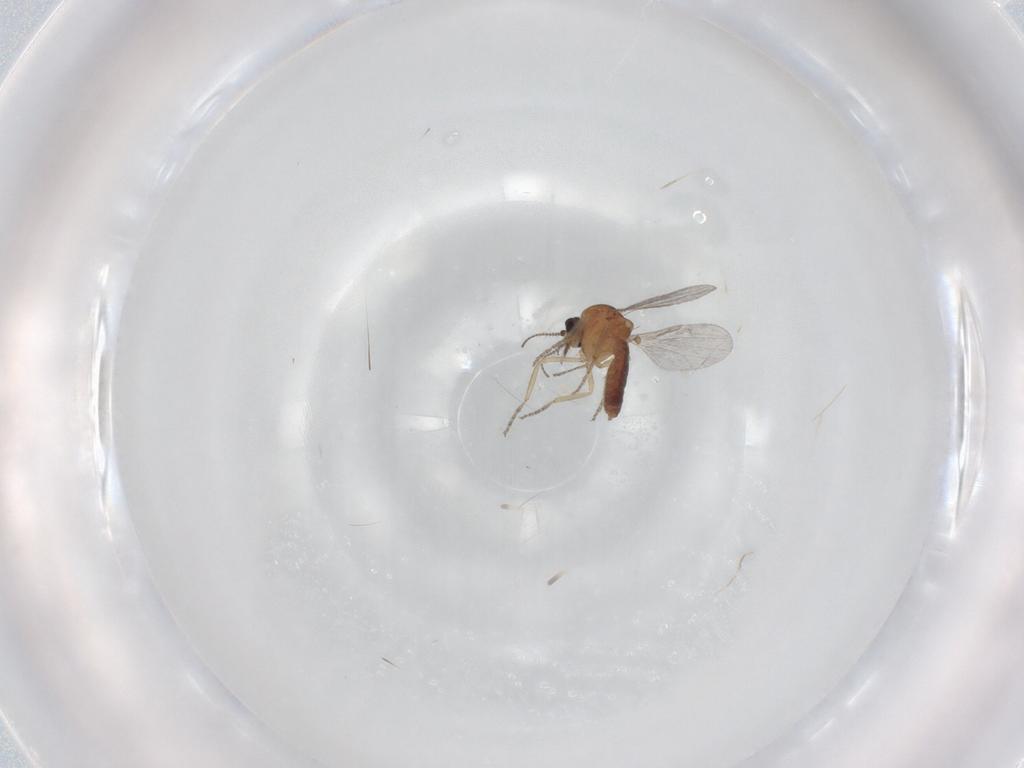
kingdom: Animalia
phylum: Arthropoda
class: Insecta
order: Diptera
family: Ceratopogonidae
